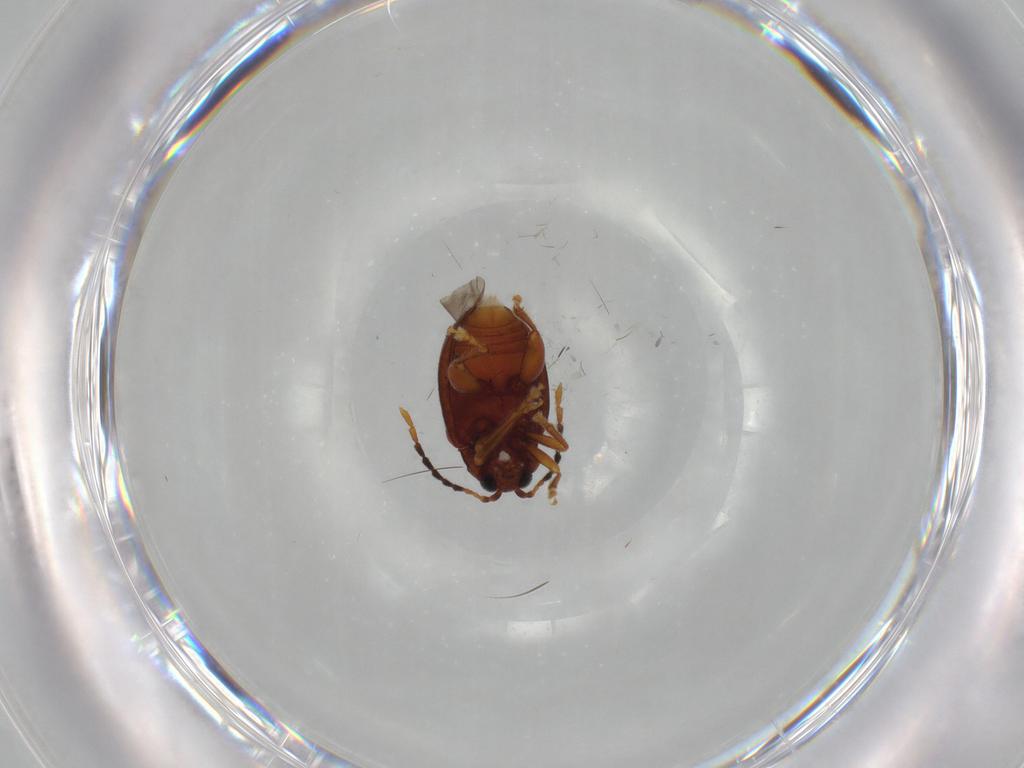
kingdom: Animalia
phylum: Arthropoda
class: Insecta
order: Coleoptera
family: Chrysomelidae
